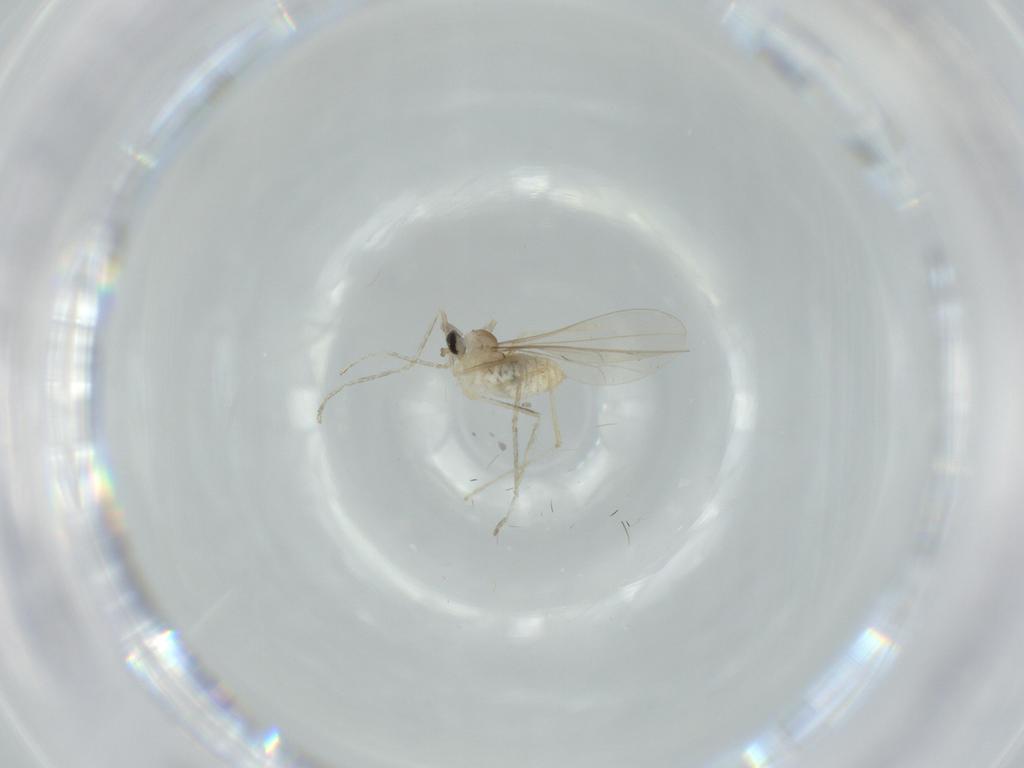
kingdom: Animalia
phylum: Arthropoda
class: Insecta
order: Diptera
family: Cecidomyiidae
